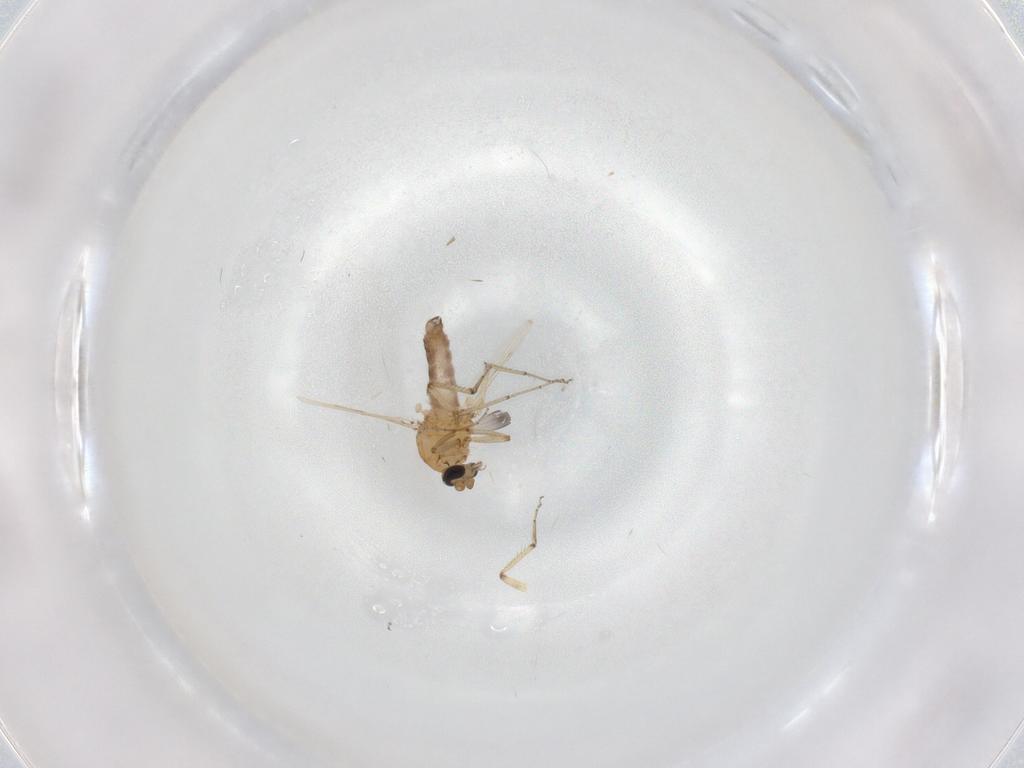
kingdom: Animalia
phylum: Arthropoda
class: Insecta
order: Diptera
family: Ceratopogonidae
